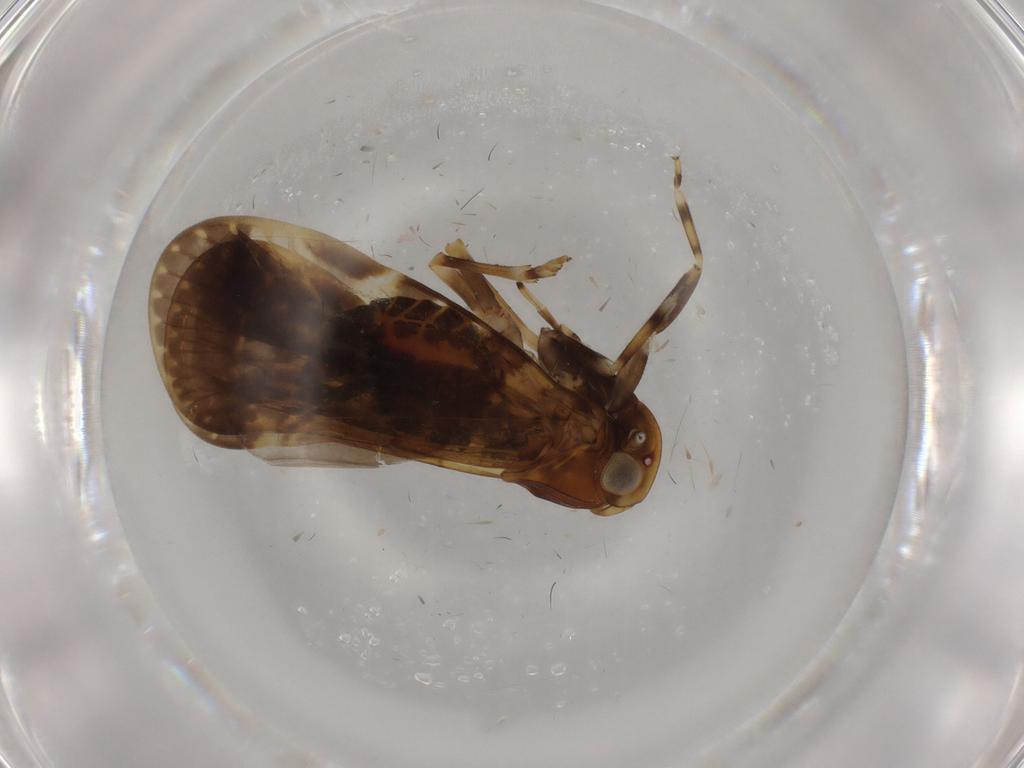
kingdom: Animalia
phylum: Arthropoda
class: Insecta
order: Hemiptera
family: Cixiidae
